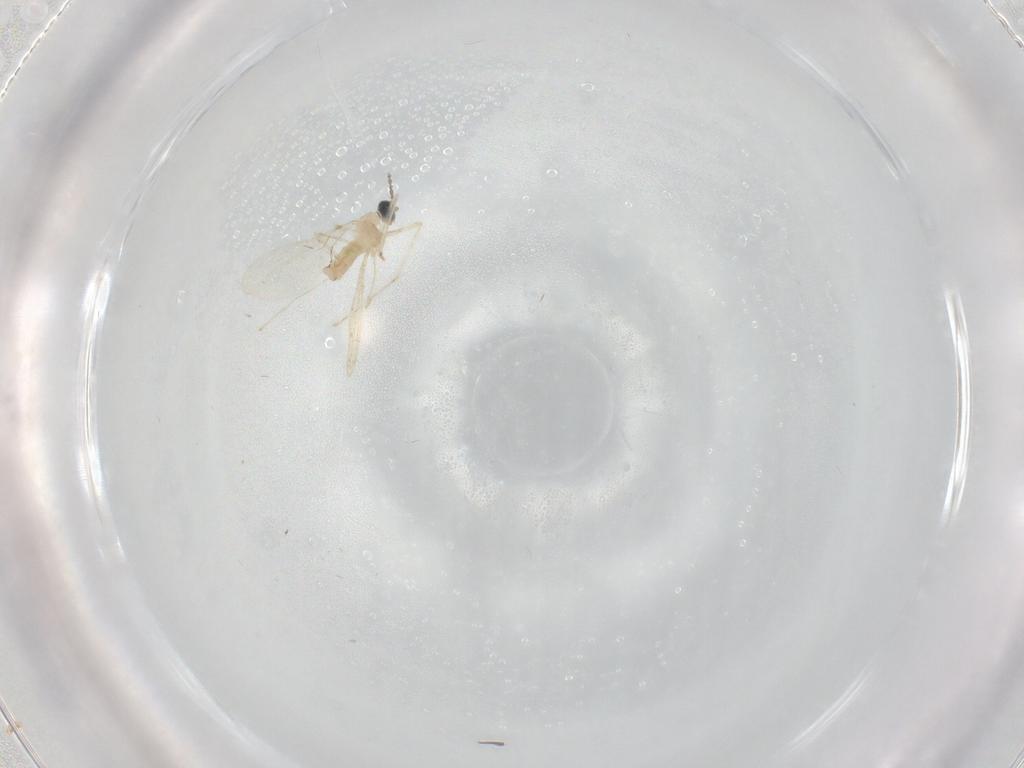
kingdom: Animalia
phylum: Arthropoda
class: Insecta
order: Diptera
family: Cecidomyiidae
